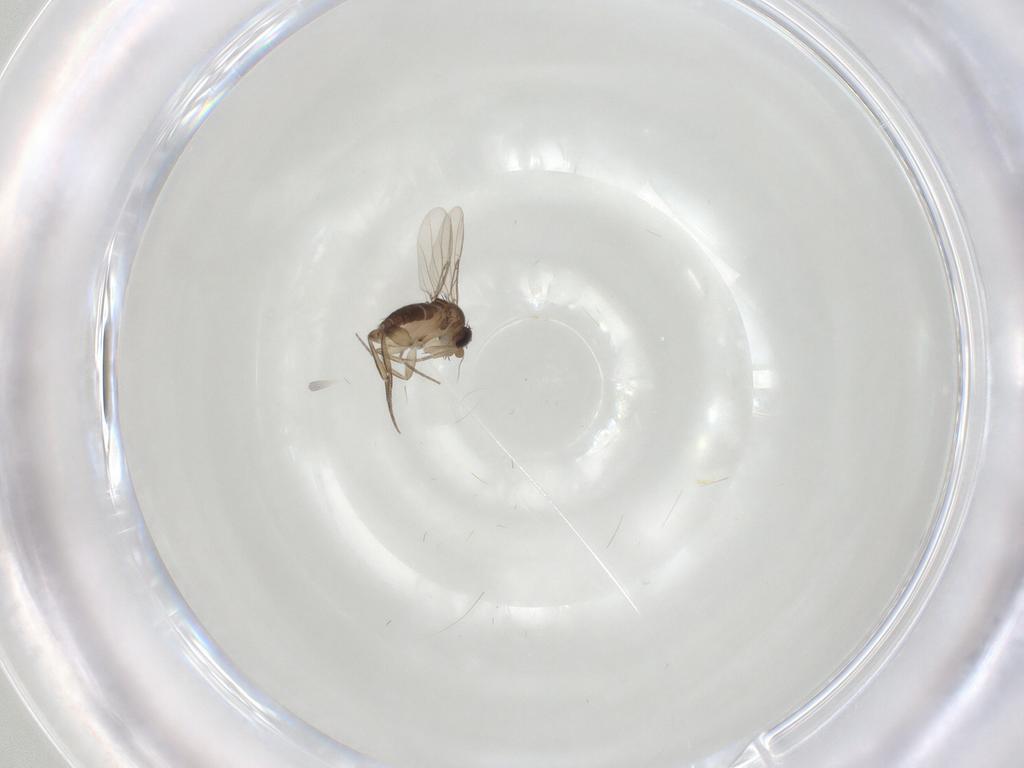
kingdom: Animalia
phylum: Arthropoda
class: Insecta
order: Diptera
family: Phoridae
